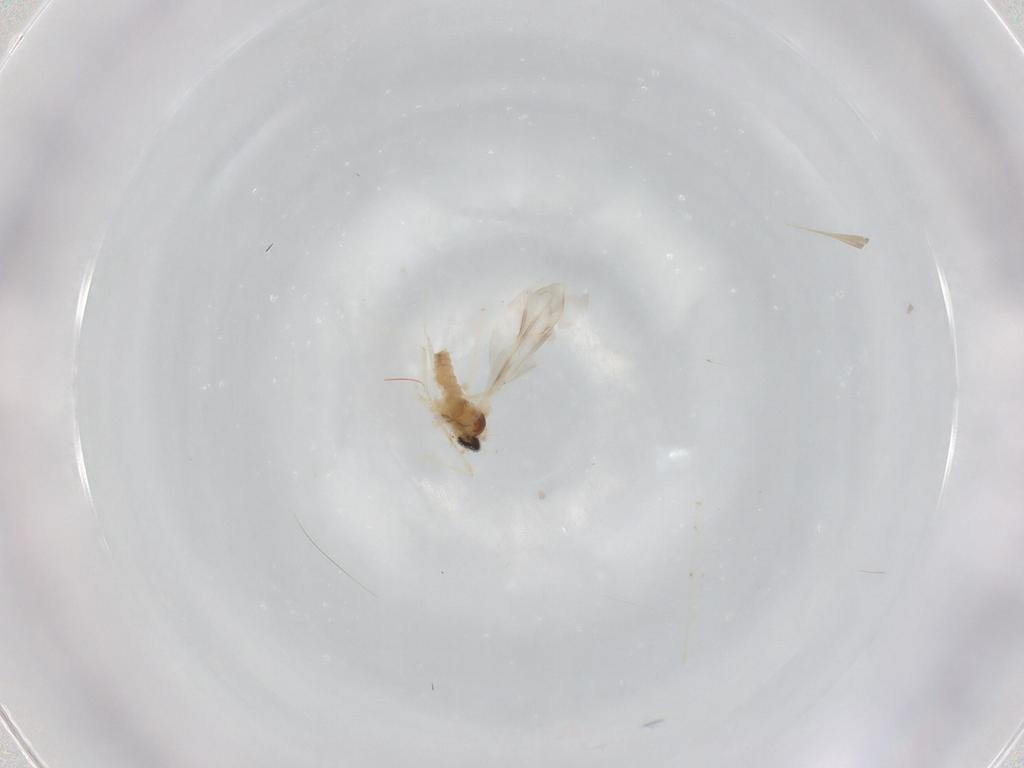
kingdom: Animalia
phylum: Arthropoda
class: Insecta
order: Diptera
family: Cecidomyiidae
